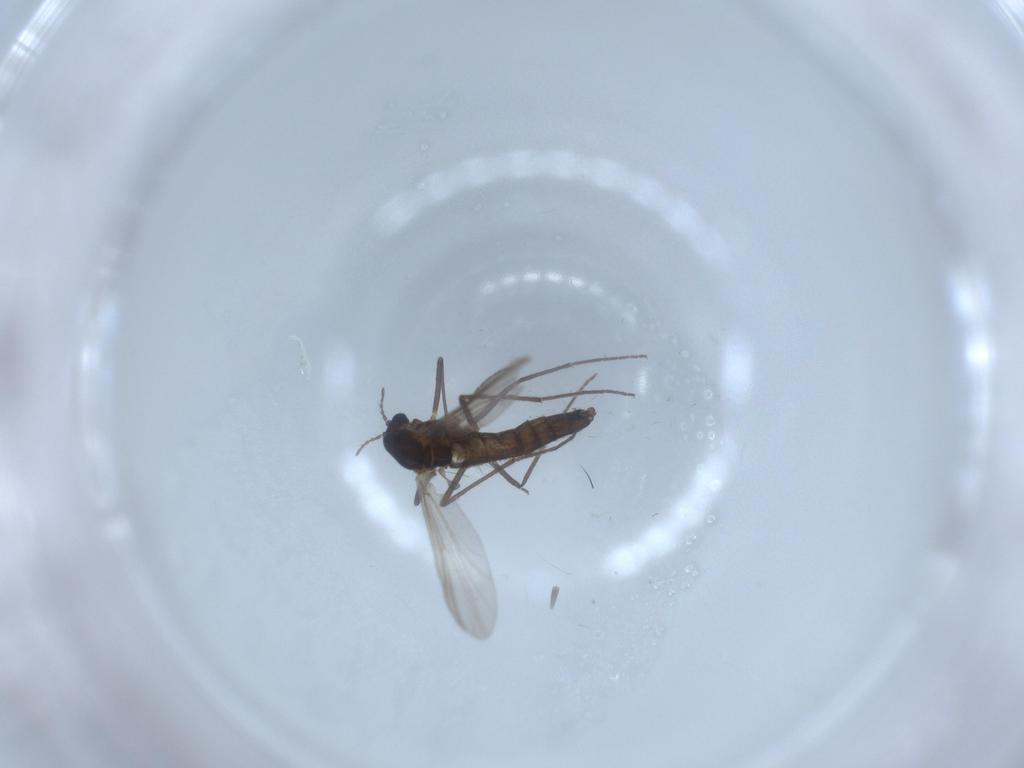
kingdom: Animalia
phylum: Arthropoda
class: Insecta
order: Diptera
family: Chironomidae
